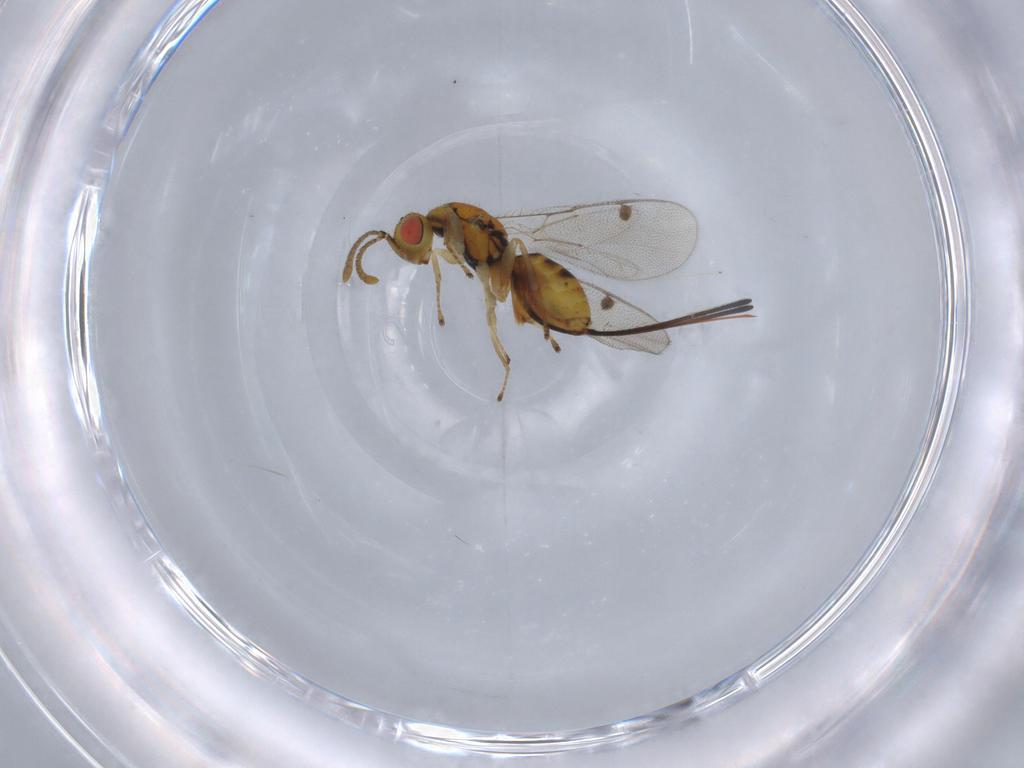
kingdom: Animalia
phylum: Arthropoda
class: Insecta
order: Hymenoptera
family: Megastigmidae
